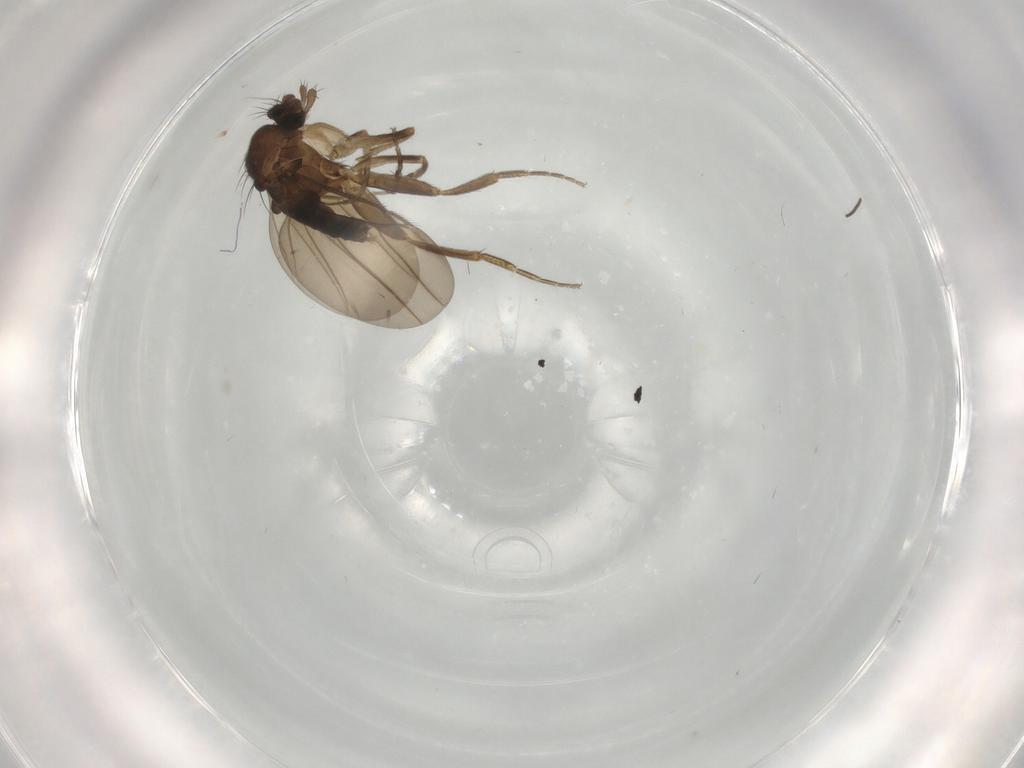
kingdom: Animalia
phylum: Arthropoda
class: Insecta
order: Diptera
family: Phoridae
